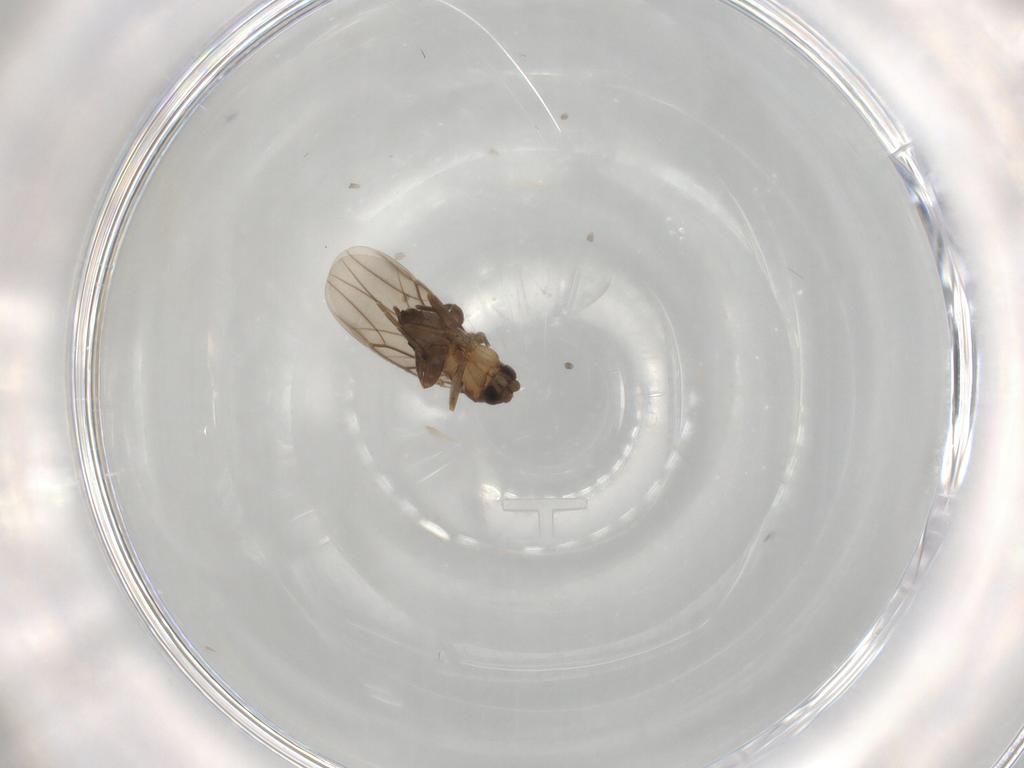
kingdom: Animalia
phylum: Arthropoda
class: Insecta
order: Diptera
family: Phoridae
